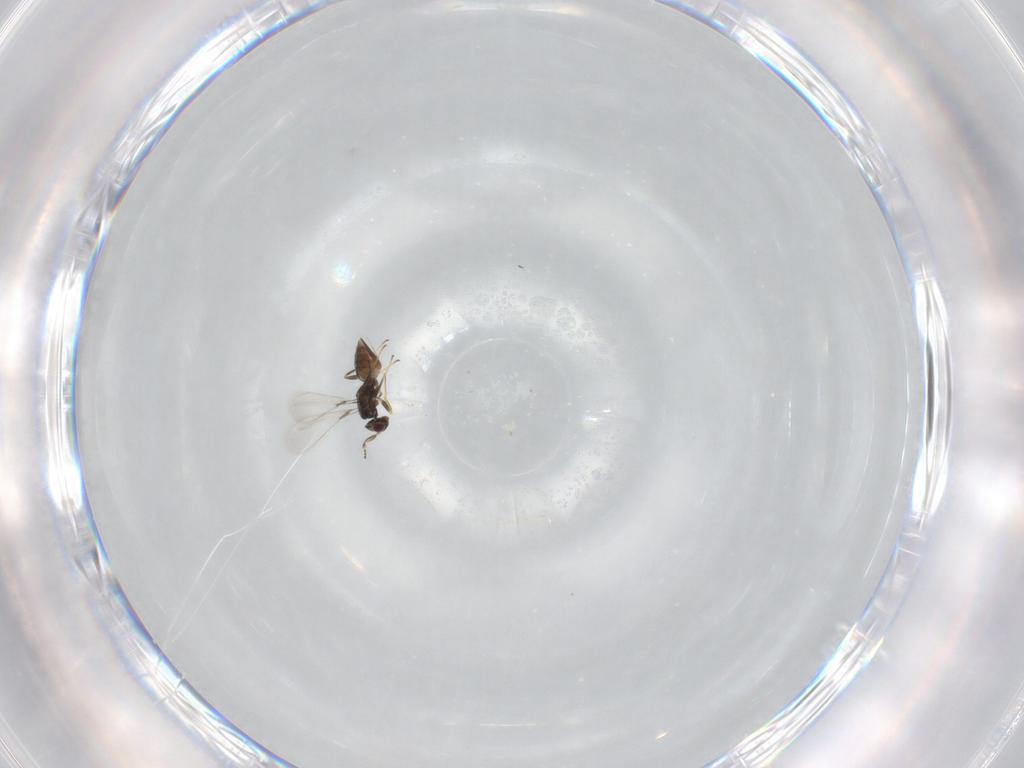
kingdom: Animalia
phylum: Arthropoda
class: Insecta
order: Hymenoptera
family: Mymaridae
